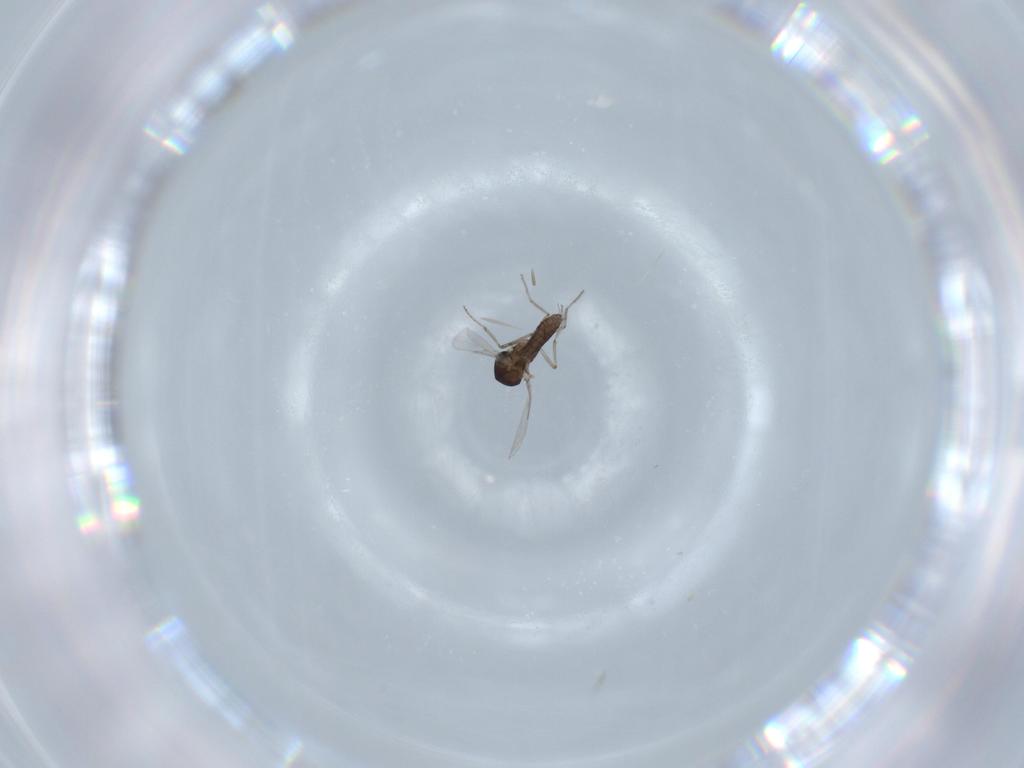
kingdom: Animalia
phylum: Arthropoda
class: Insecta
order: Diptera
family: Ceratopogonidae
